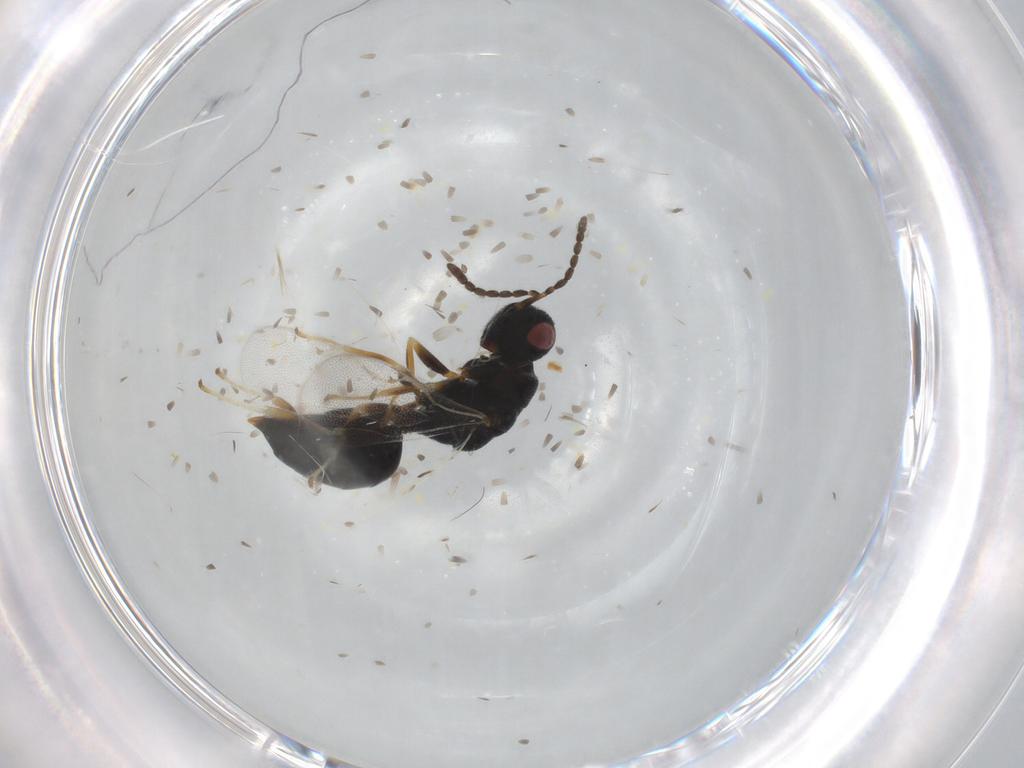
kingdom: Animalia
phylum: Arthropoda
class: Insecta
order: Hymenoptera
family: Eurytomidae
